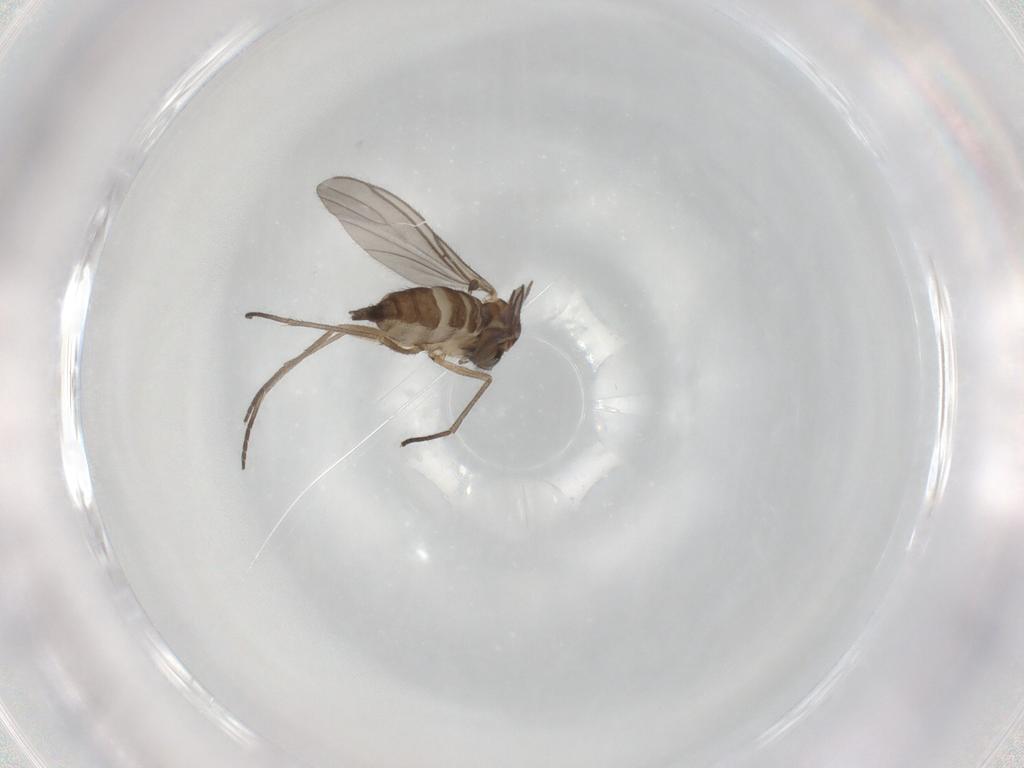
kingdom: Animalia
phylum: Arthropoda
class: Insecta
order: Diptera
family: Sciaridae
